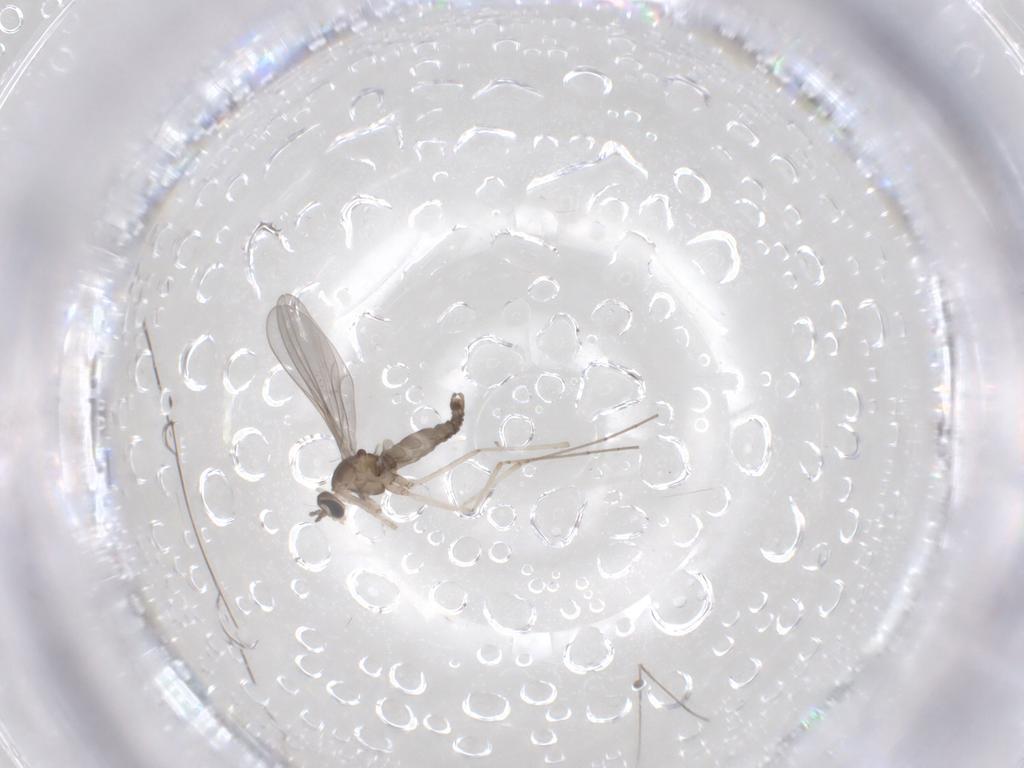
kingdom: Animalia
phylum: Arthropoda
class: Insecta
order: Diptera
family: Cecidomyiidae
